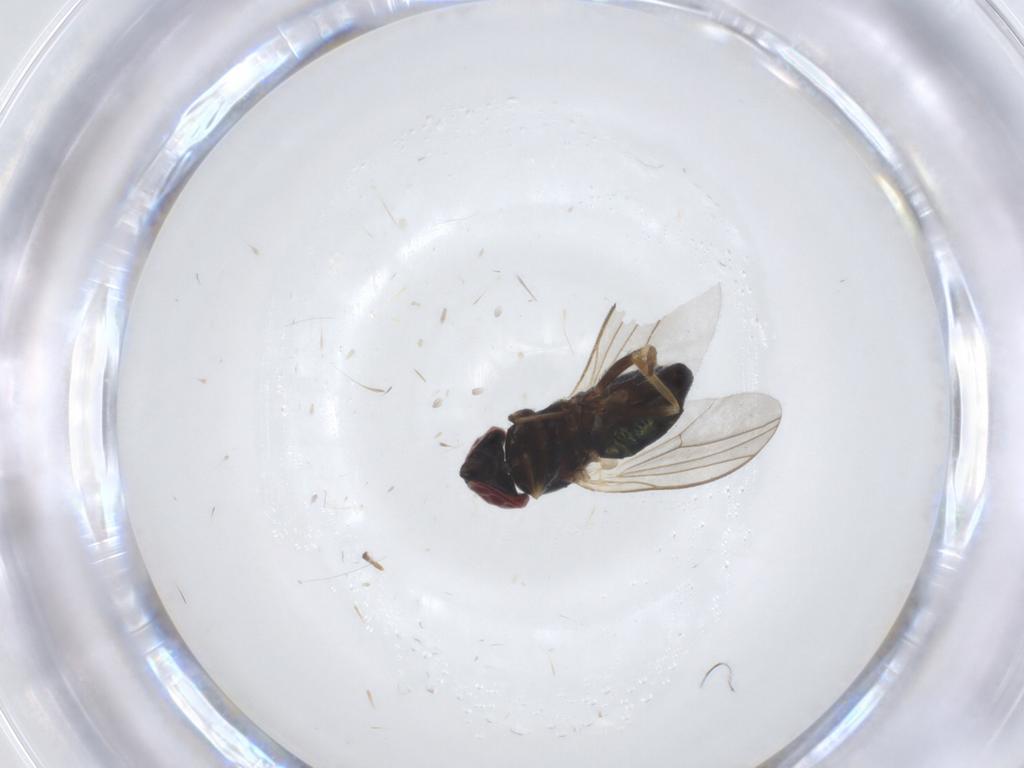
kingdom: Animalia
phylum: Arthropoda
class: Insecta
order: Diptera
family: Dolichopodidae
